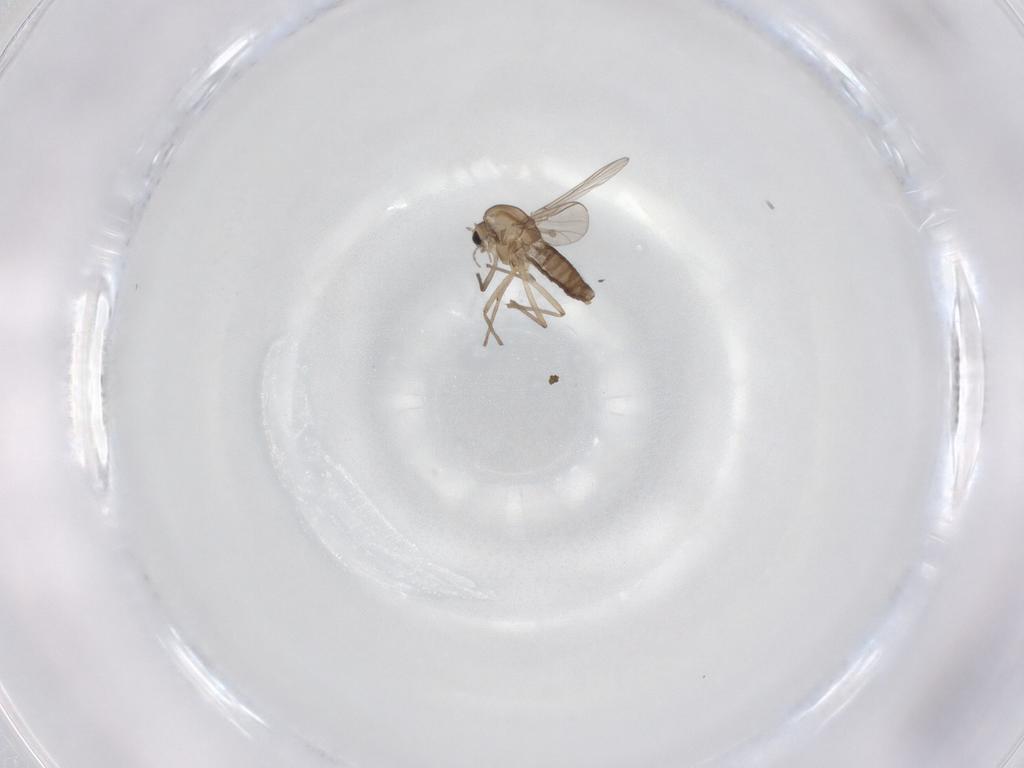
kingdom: Animalia
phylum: Arthropoda
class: Insecta
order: Diptera
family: Chironomidae
